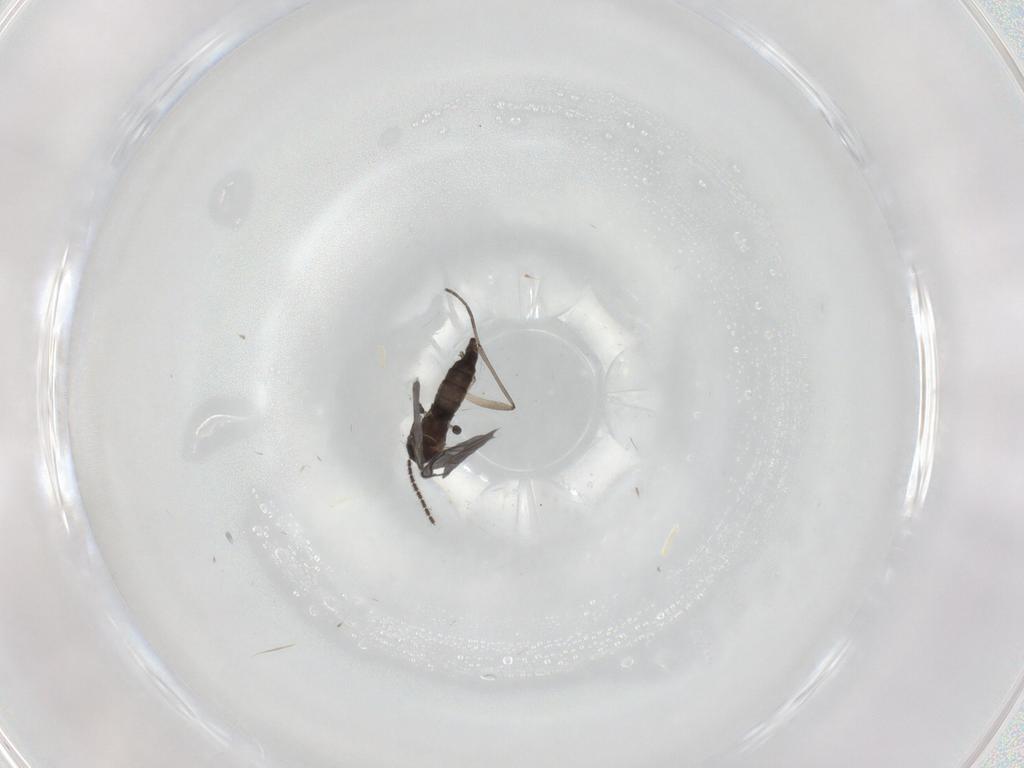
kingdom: Animalia
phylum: Arthropoda
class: Insecta
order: Diptera
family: Sciaridae
